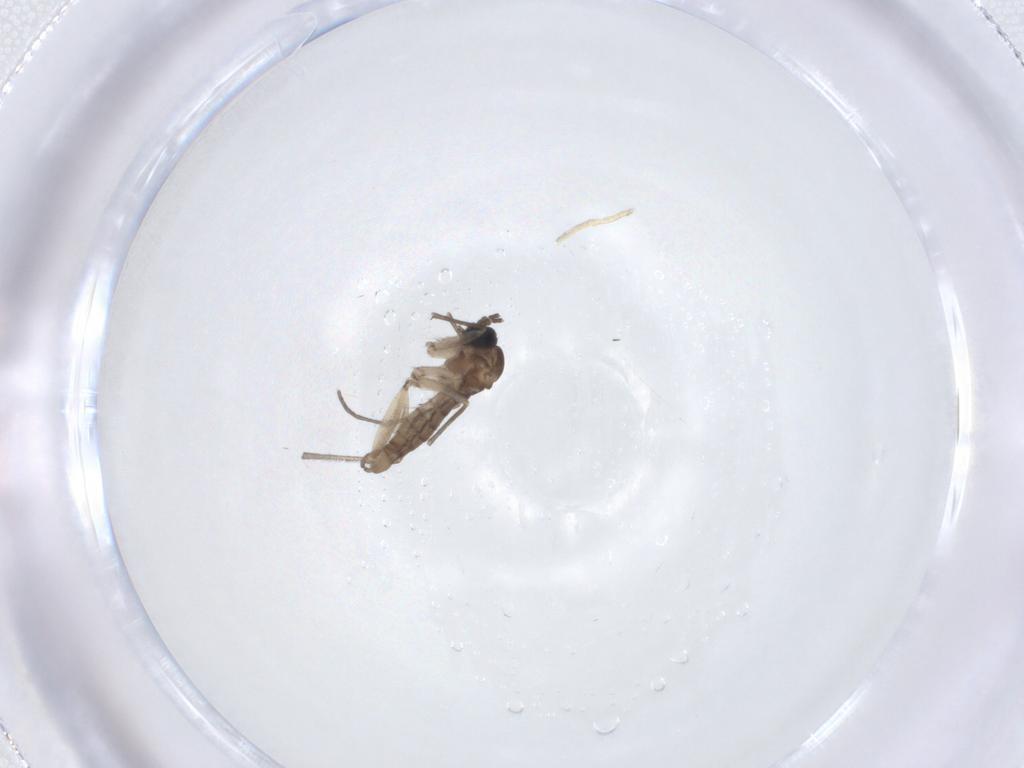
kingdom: Animalia
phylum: Arthropoda
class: Insecta
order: Diptera
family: Sciaridae
